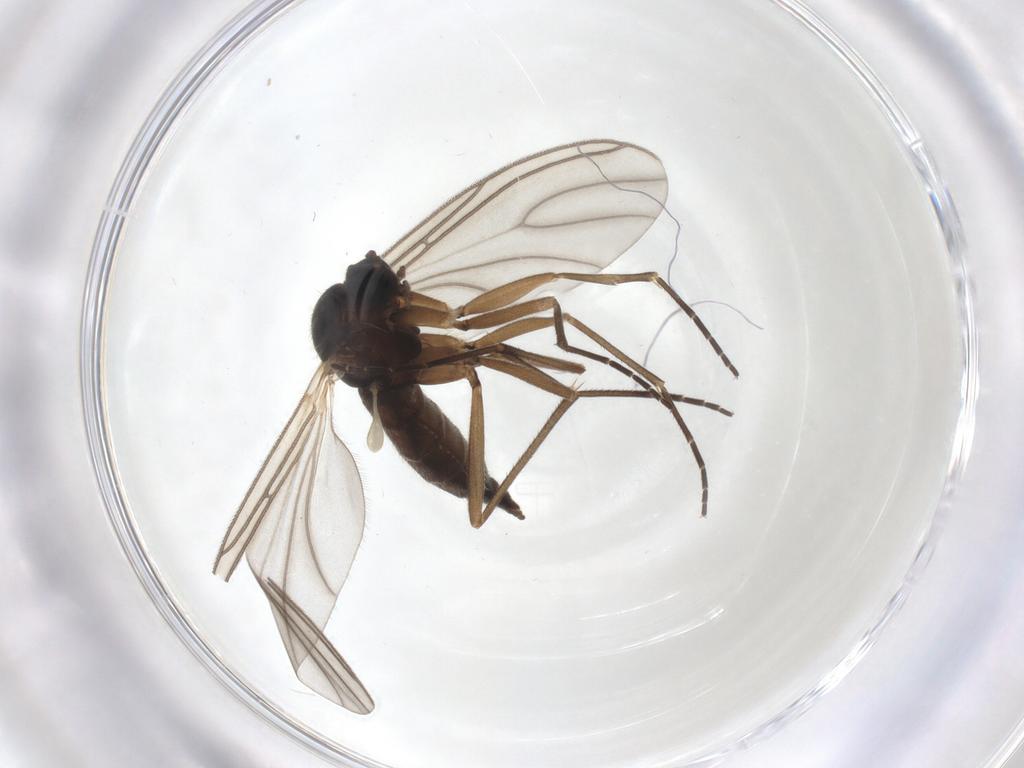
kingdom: Animalia
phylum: Arthropoda
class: Insecta
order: Diptera
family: Sciaridae
